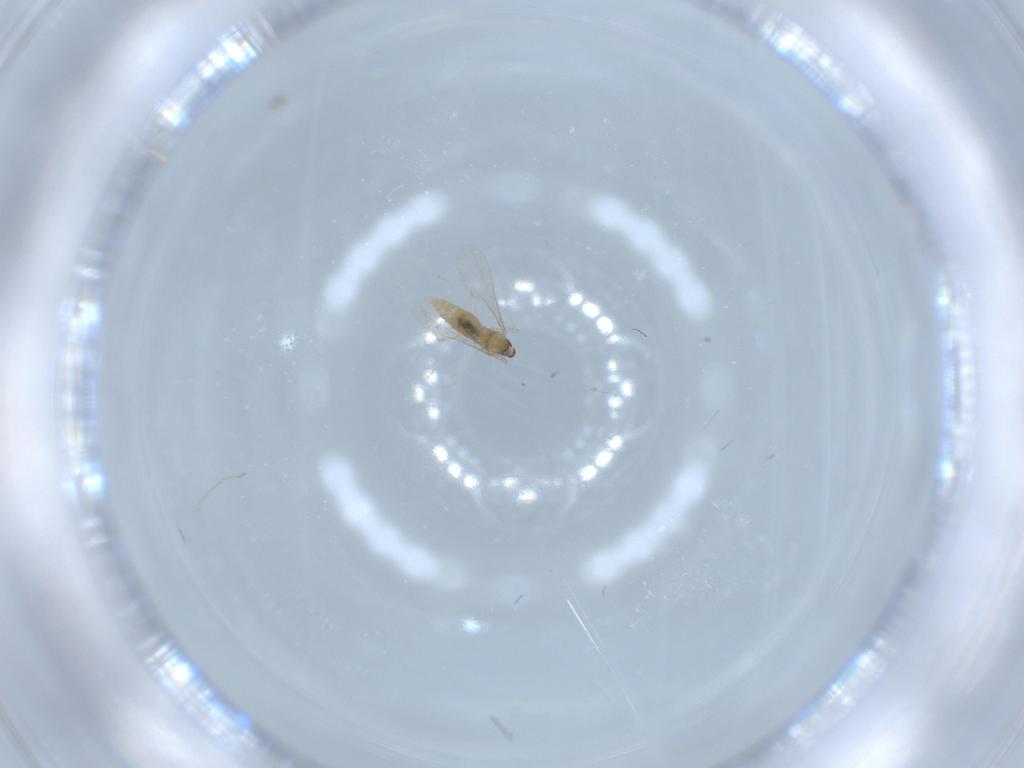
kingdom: Animalia
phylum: Arthropoda
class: Insecta
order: Diptera
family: Cecidomyiidae
